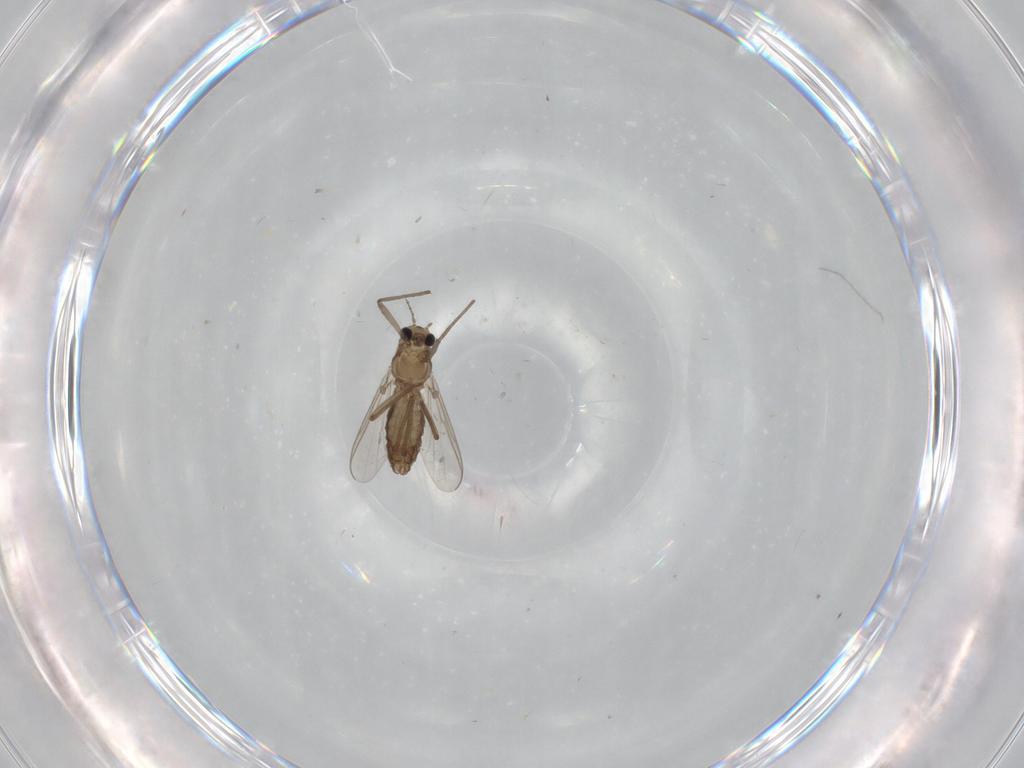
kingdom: Animalia
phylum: Arthropoda
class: Insecta
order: Diptera
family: Chironomidae
